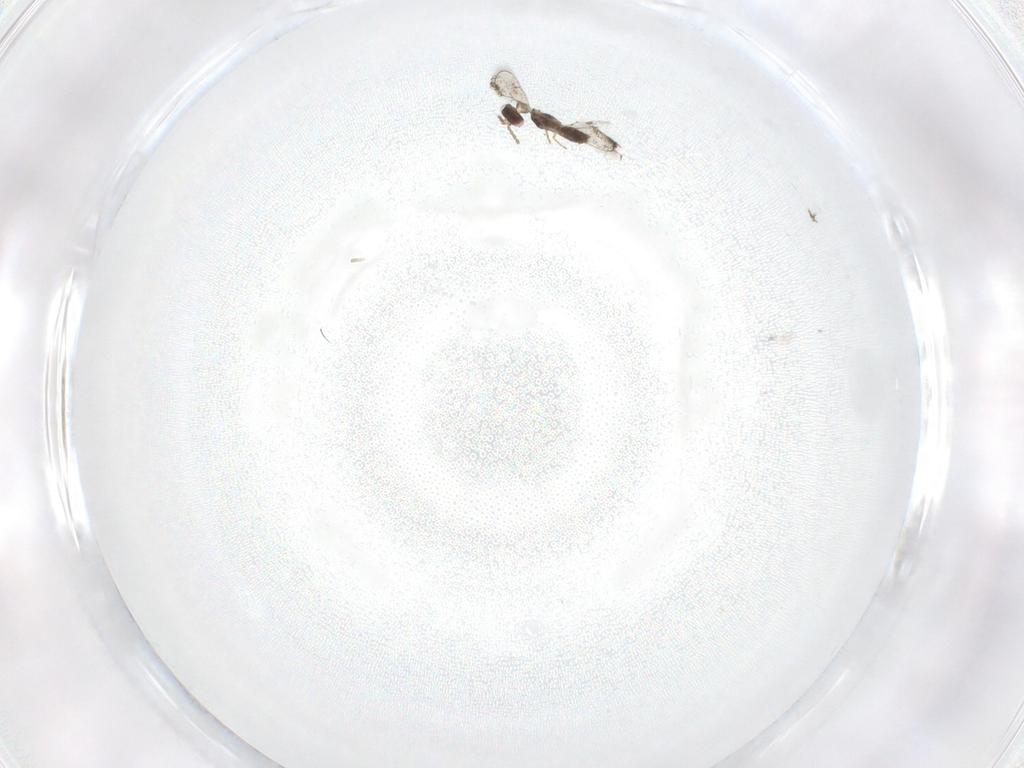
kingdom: Animalia
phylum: Arthropoda
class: Insecta
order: Hymenoptera
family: Eulophidae
